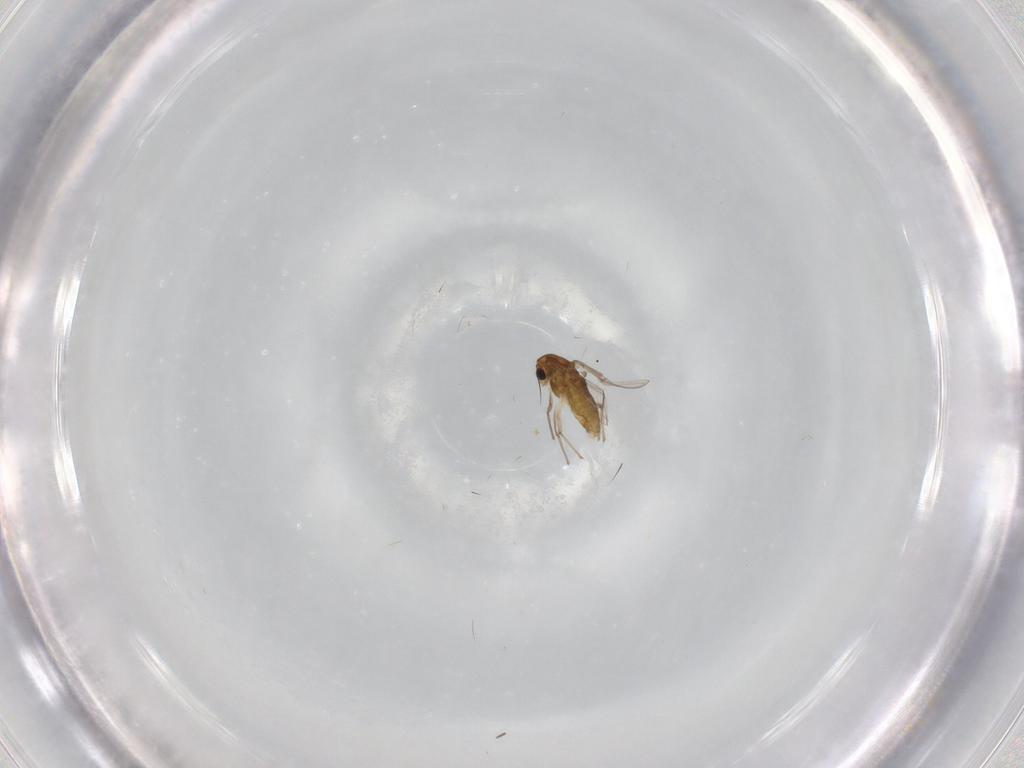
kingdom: Animalia
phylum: Arthropoda
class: Insecta
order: Diptera
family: Chironomidae
